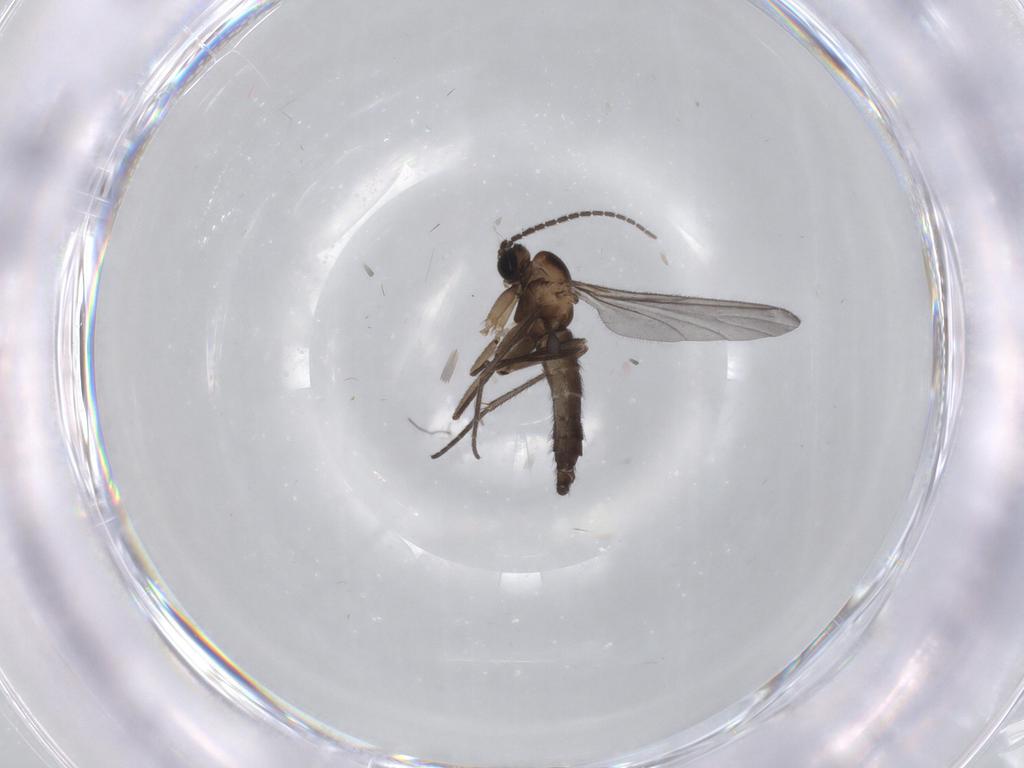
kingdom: Animalia
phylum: Arthropoda
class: Insecta
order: Diptera
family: Sciaridae
